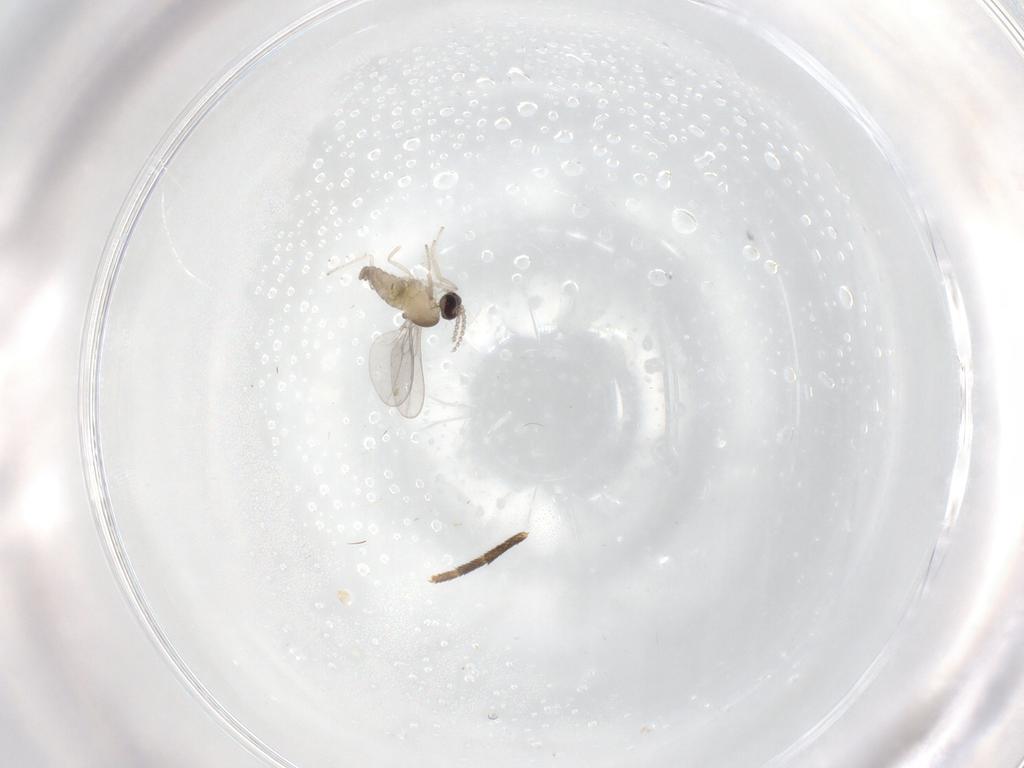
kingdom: Animalia
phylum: Arthropoda
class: Insecta
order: Diptera
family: Cecidomyiidae
